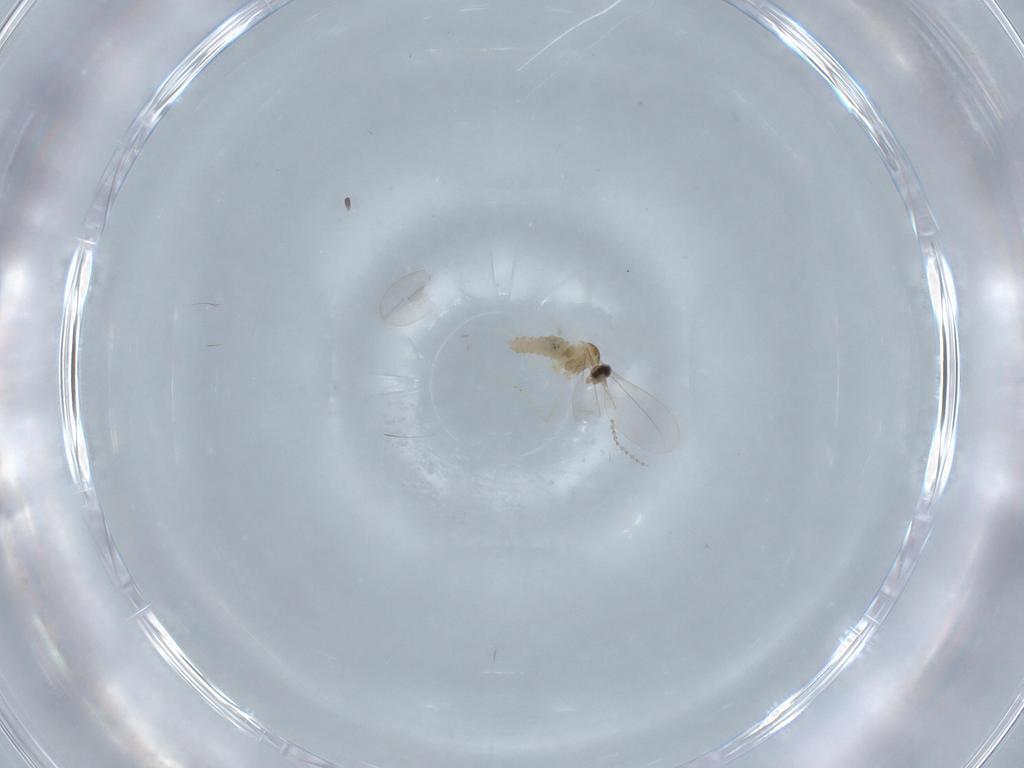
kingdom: Animalia
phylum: Arthropoda
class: Insecta
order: Diptera
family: Cecidomyiidae
